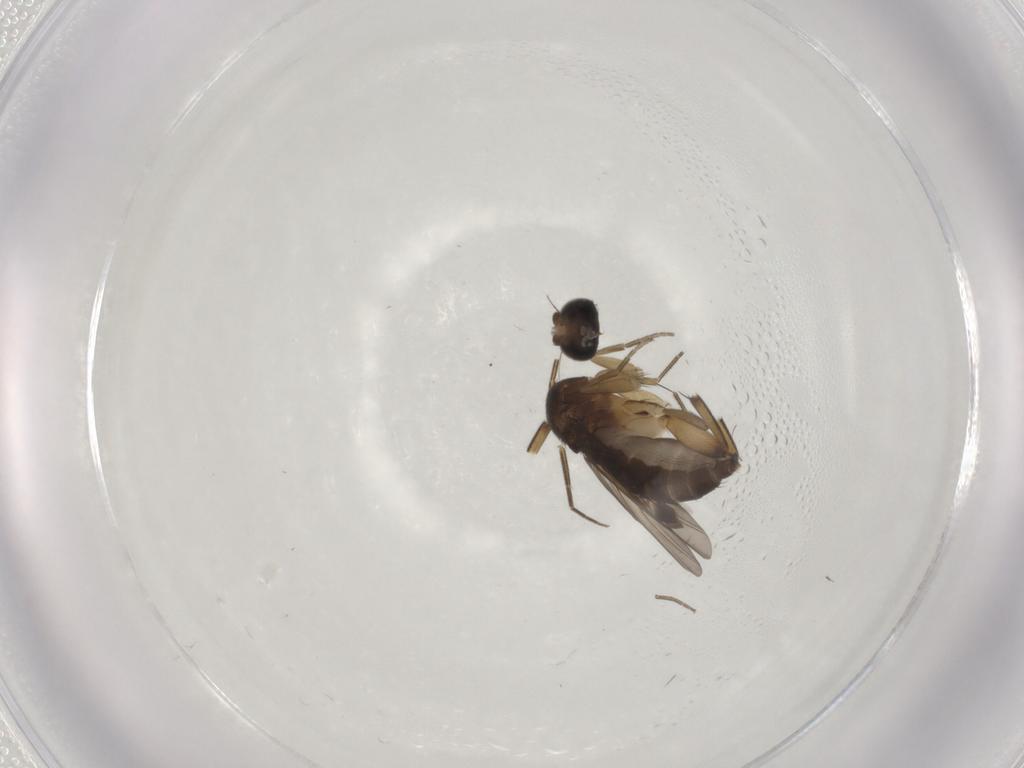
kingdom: Animalia
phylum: Arthropoda
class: Insecta
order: Diptera
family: Phoridae
